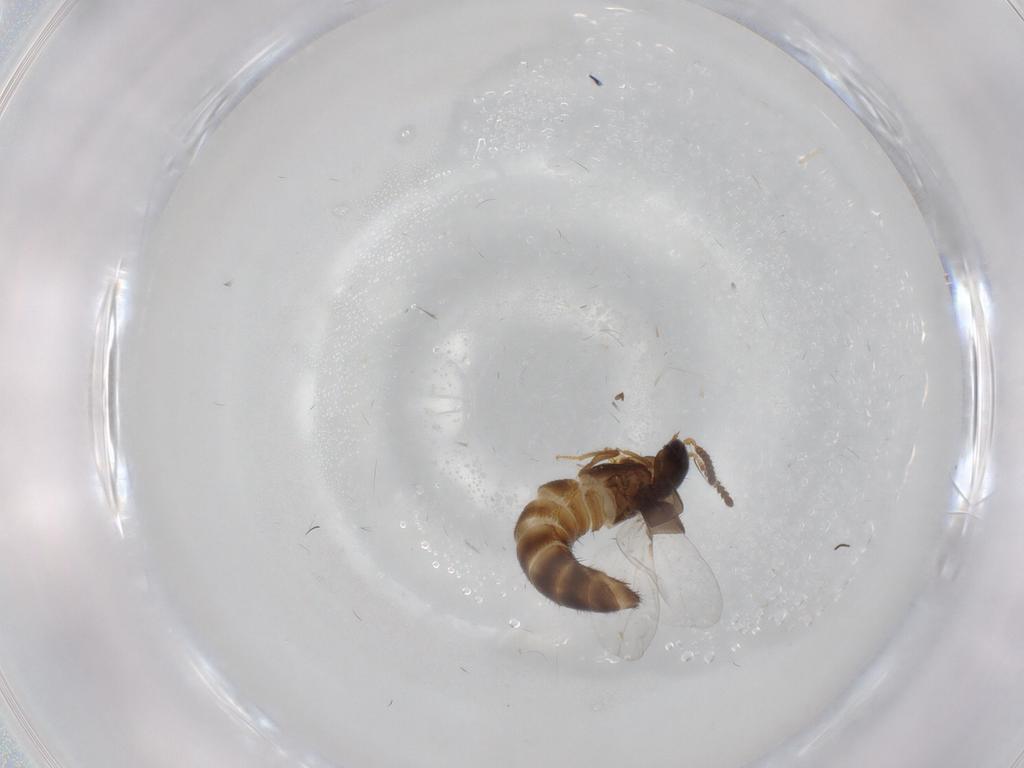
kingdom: Animalia
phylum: Arthropoda
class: Insecta
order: Coleoptera
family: Staphylinidae
